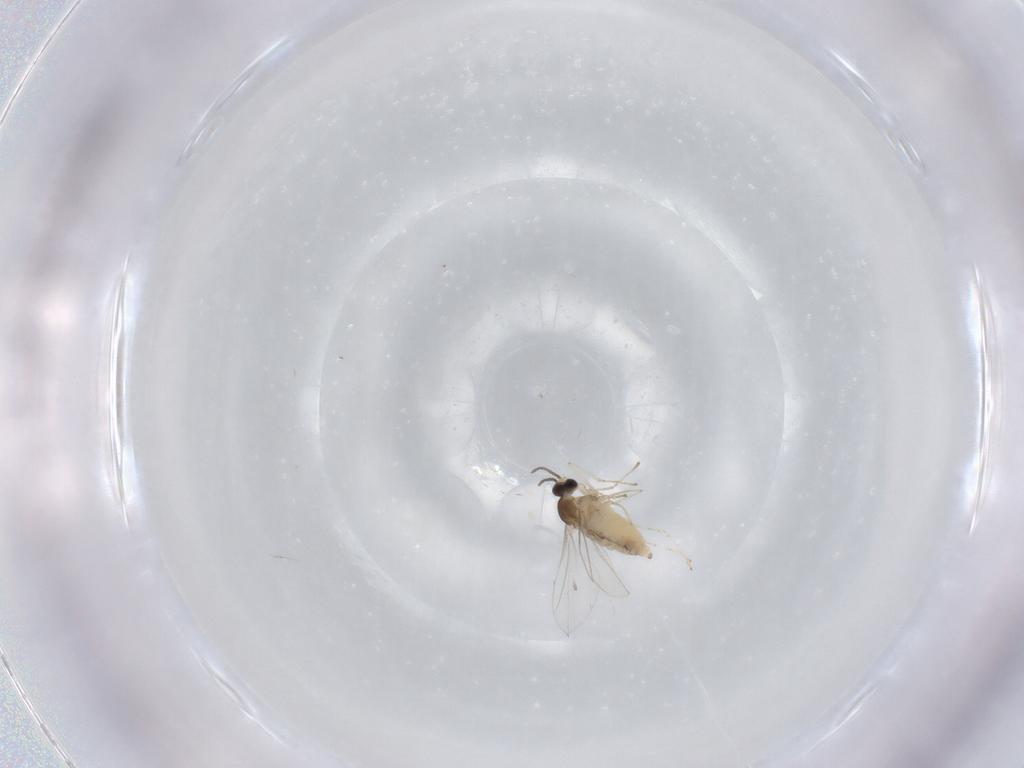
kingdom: Animalia
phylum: Arthropoda
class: Insecta
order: Diptera
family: Cecidomyiidae
